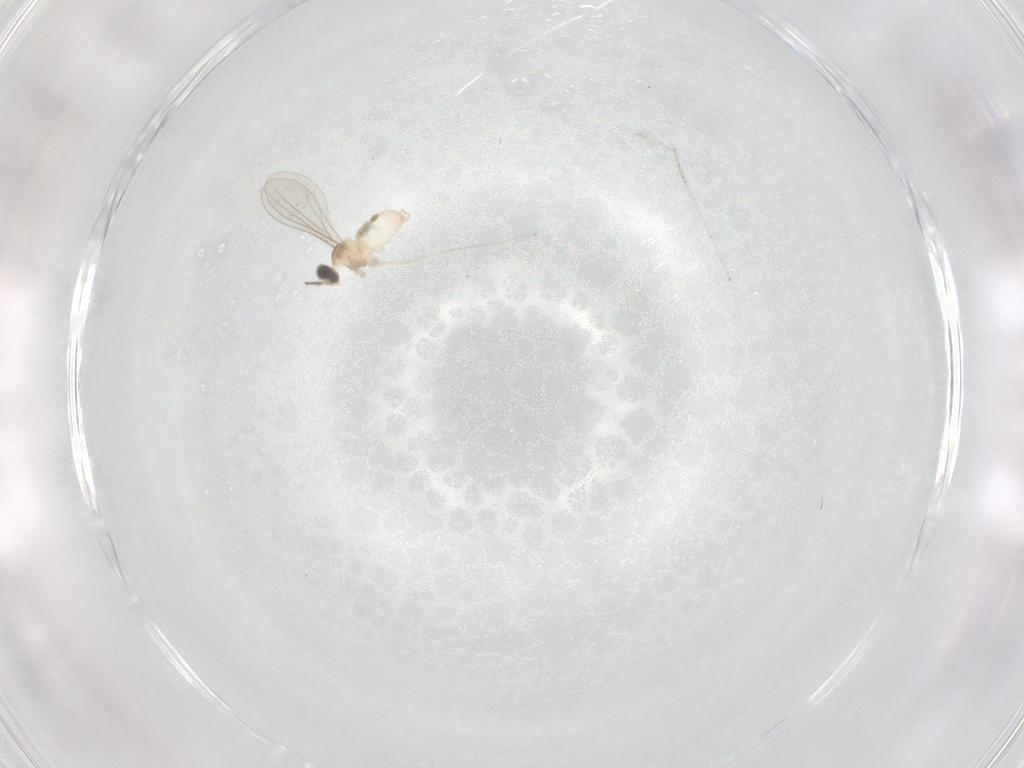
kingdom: Animalia
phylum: Arthropoda
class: Insecta
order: Diptera
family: Cecidomyiidae
